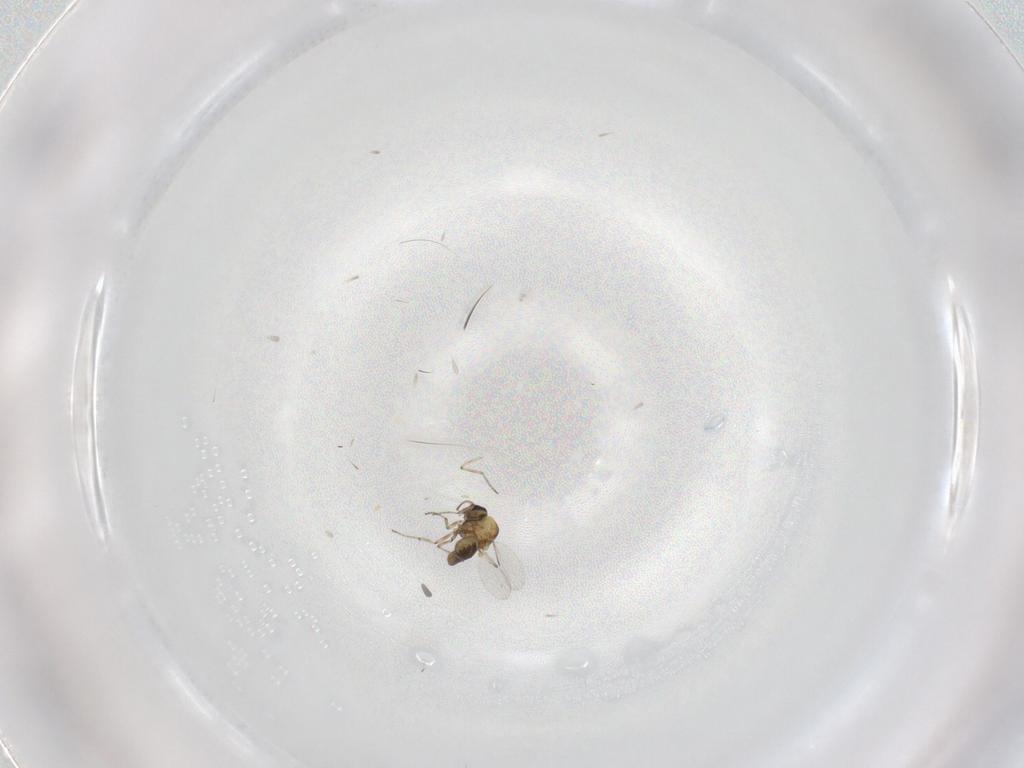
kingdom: Animalia
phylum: Arthropoda
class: Insecta
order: Diptera
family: Ceratopogonidae
